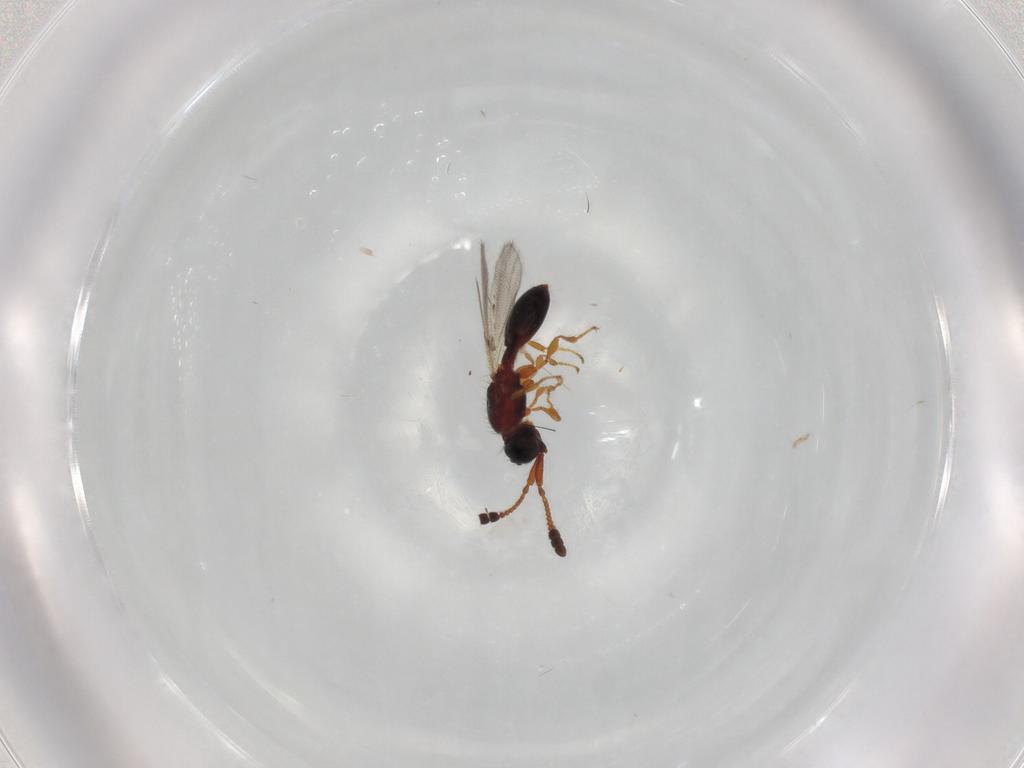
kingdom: Animalia
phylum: Arthropoda
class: Insecta
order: Hymenoptera
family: Diapriidae
